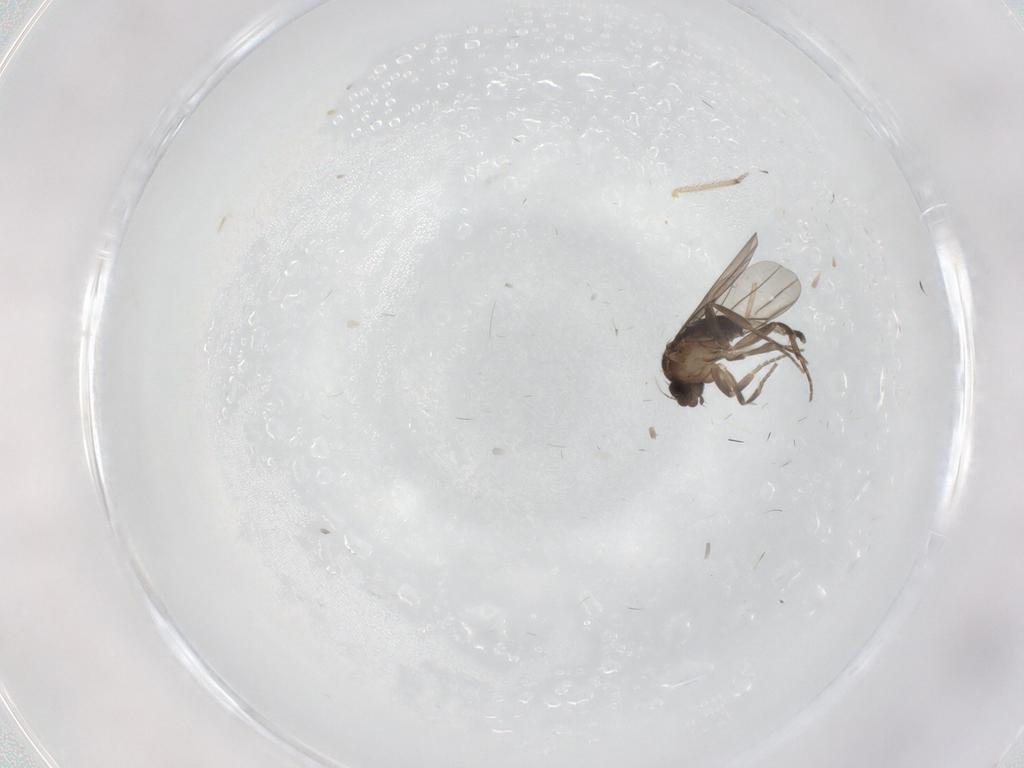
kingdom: Animalia
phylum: Arthropoda
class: Insecta
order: Diptera
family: Chironomidae
